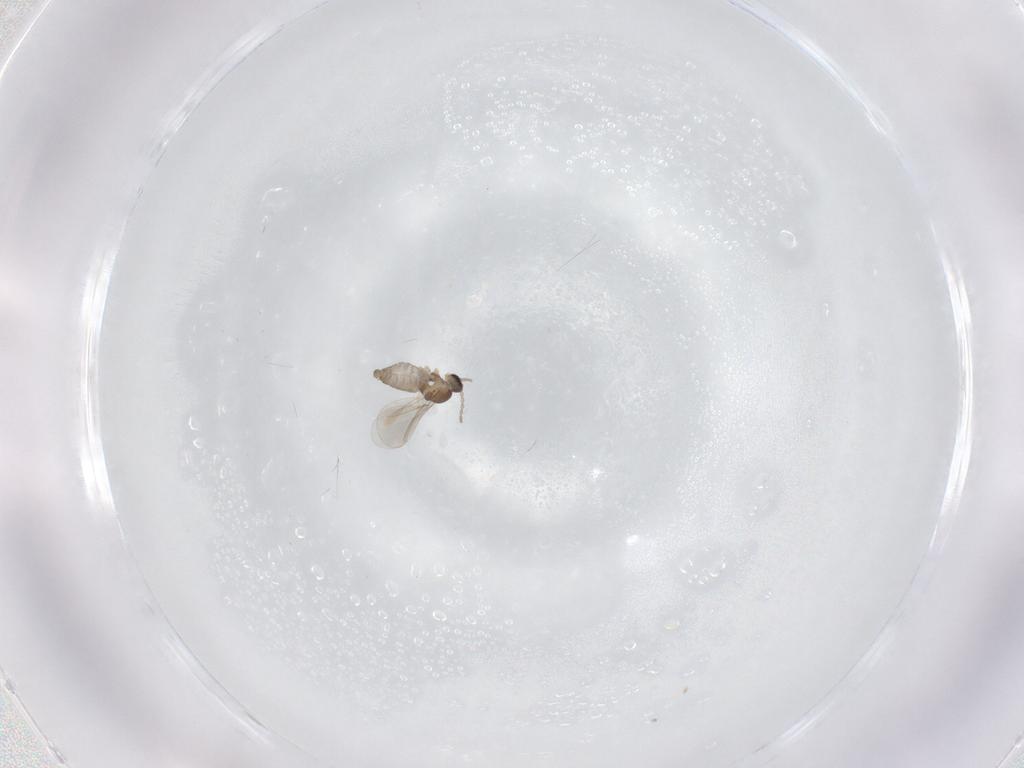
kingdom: Animalia
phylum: Arthropoda
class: Insecta
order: Diptera
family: Cecidomyiidae
